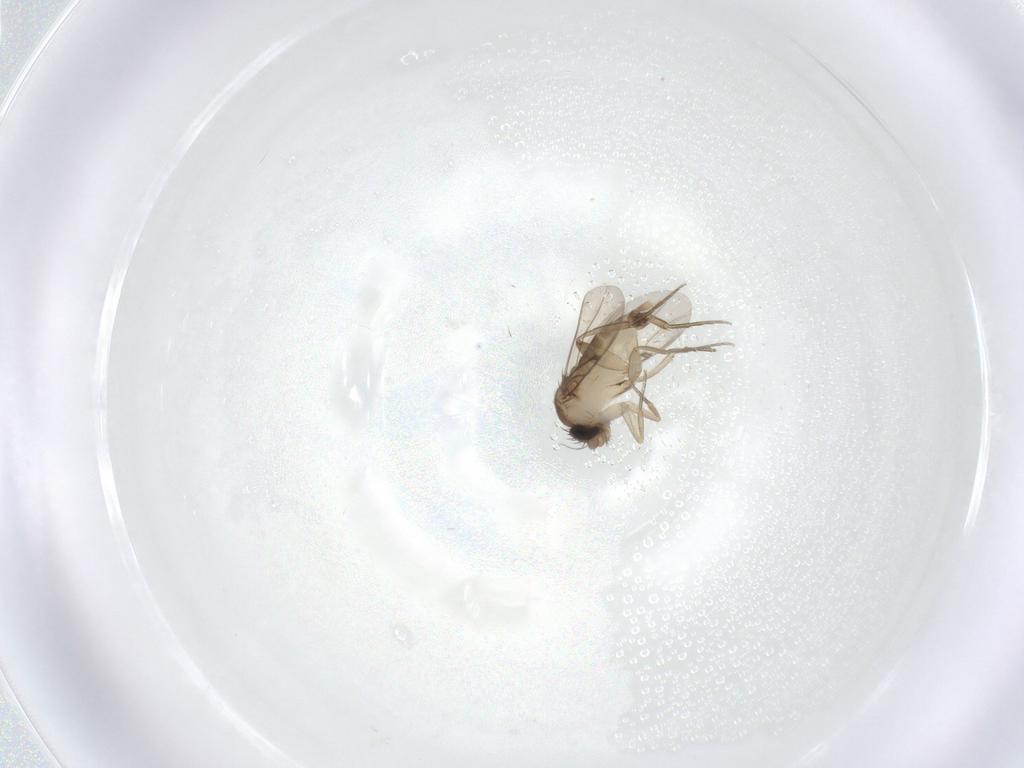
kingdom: Animalia
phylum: Arthropoda
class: Insecta
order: Diptera
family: Phoridae
